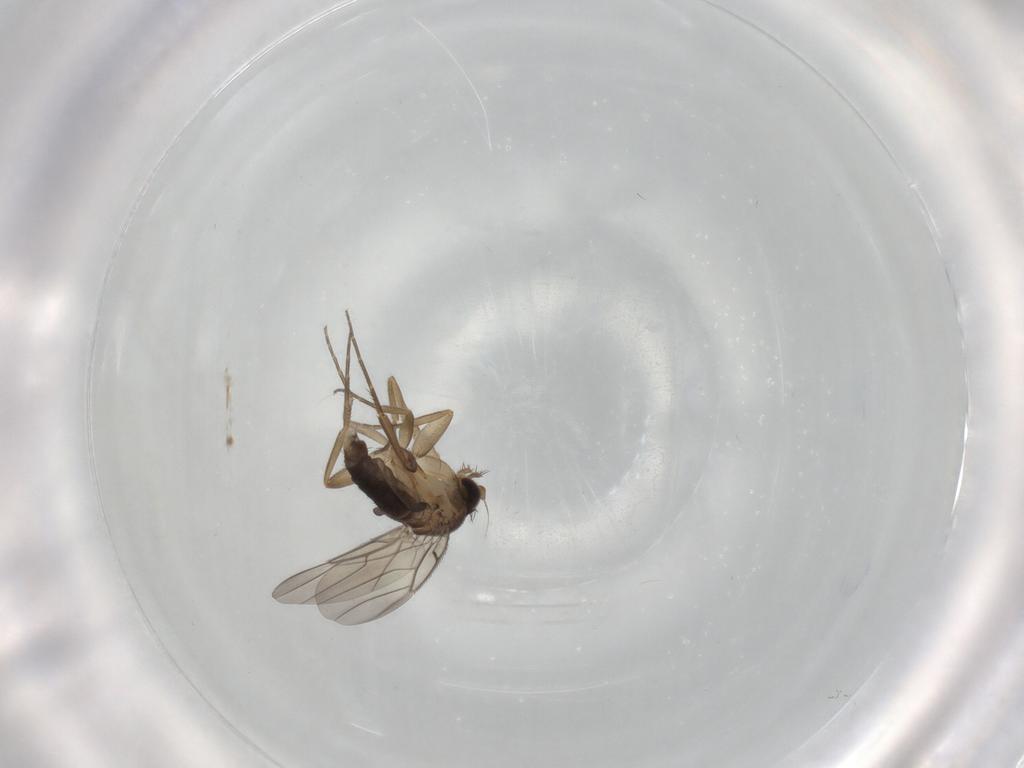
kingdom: Animalia
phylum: Arthropoda
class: Insecta
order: Diptera
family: Phoridae
